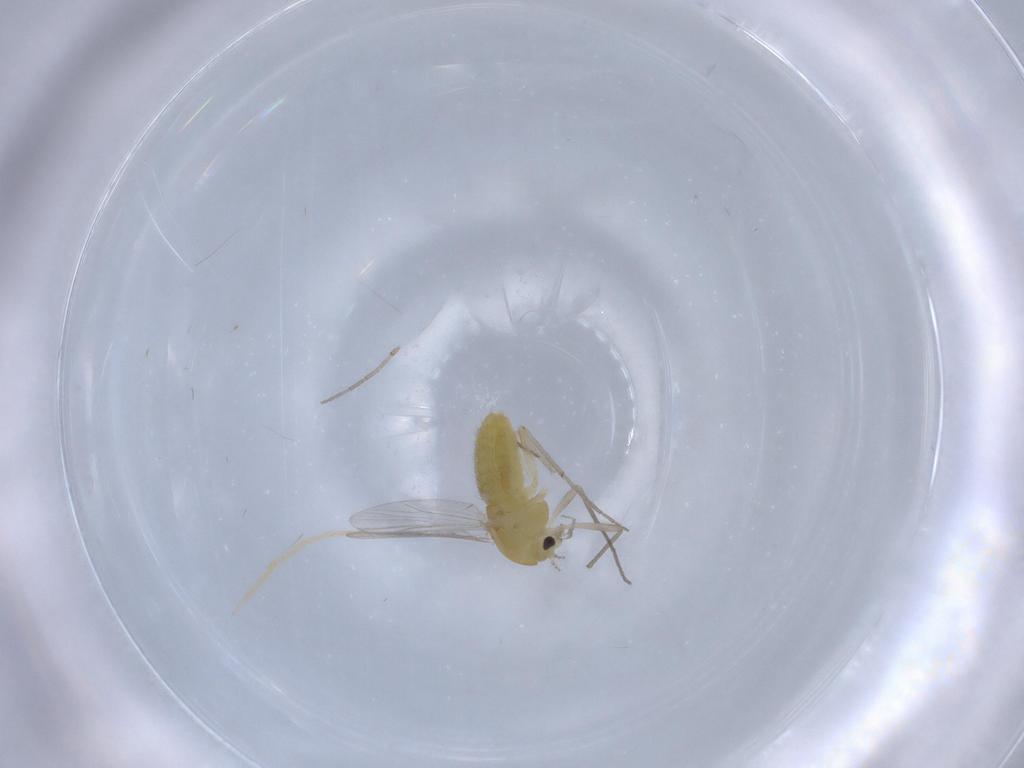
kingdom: Animalia
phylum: Arthropoda
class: Insecta
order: Diptera
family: Chironomidae
